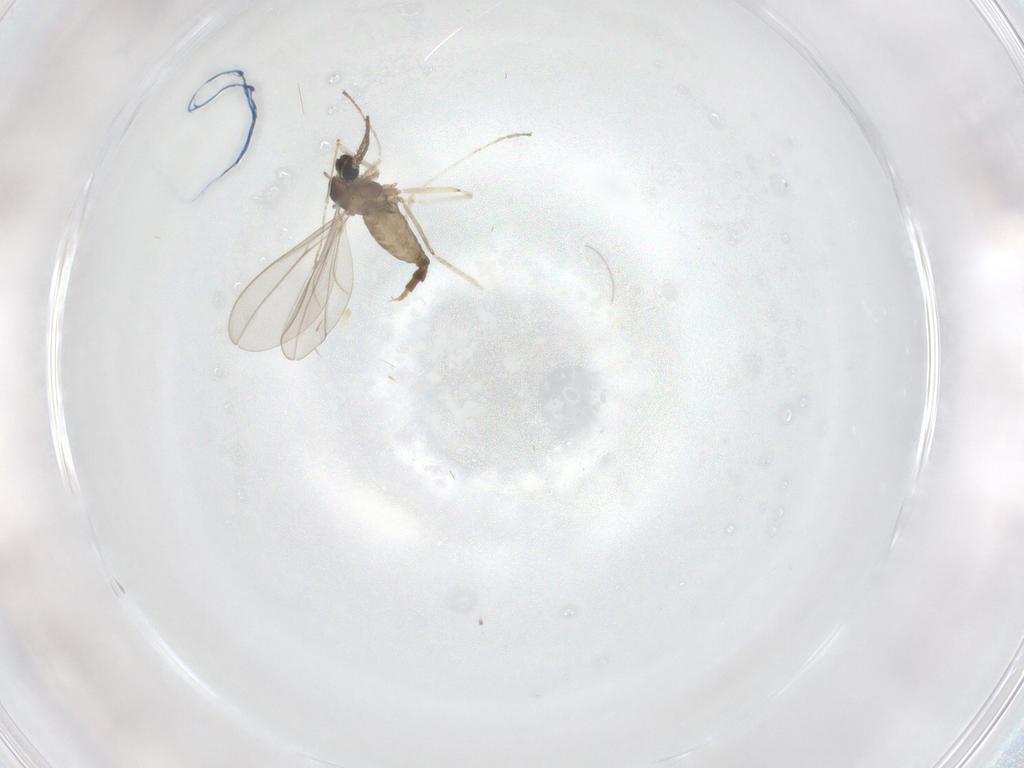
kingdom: Animalia
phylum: Arthropoda
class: Insecta
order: Diptera
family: Cecidomyiidae
